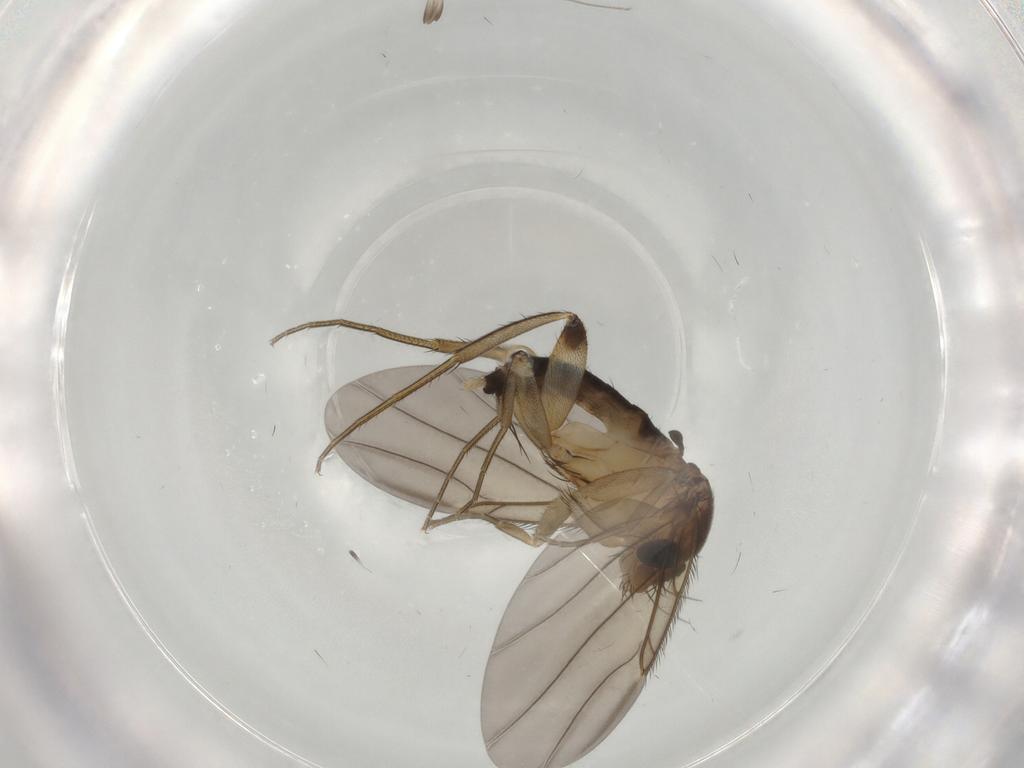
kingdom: Animalia
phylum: Arthropoda
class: Insecta
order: Diptera
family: Phoridae
